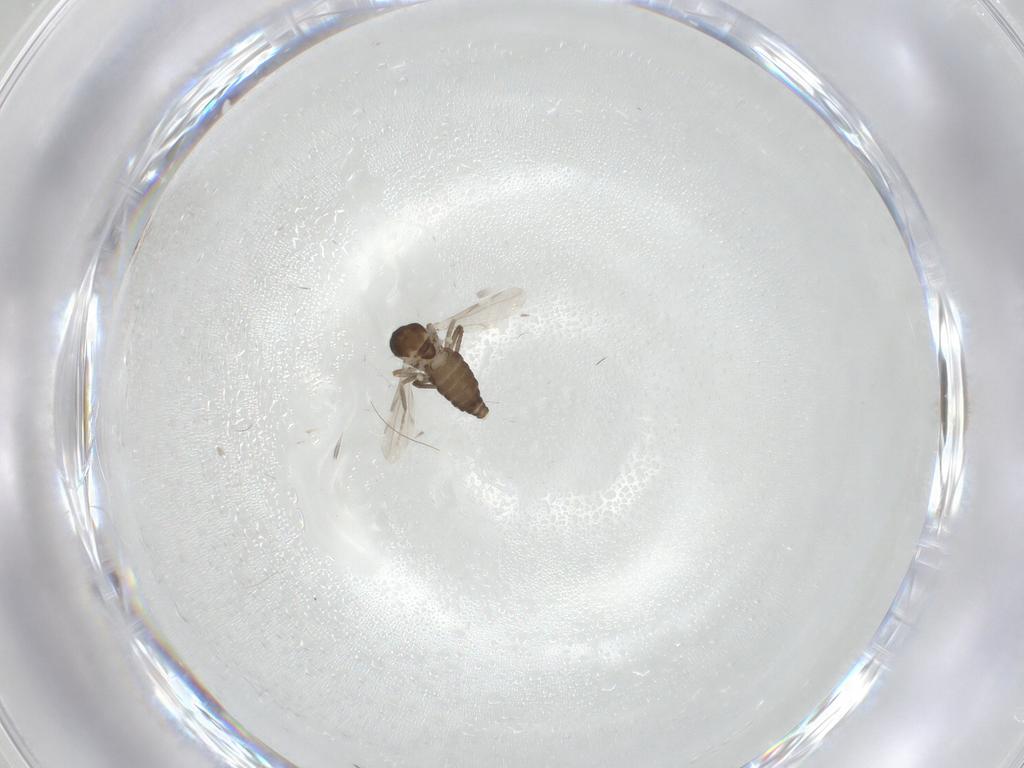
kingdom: Animalia
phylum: Arthropoda
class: Insecta
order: Diptera
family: Ceratopogonidae
